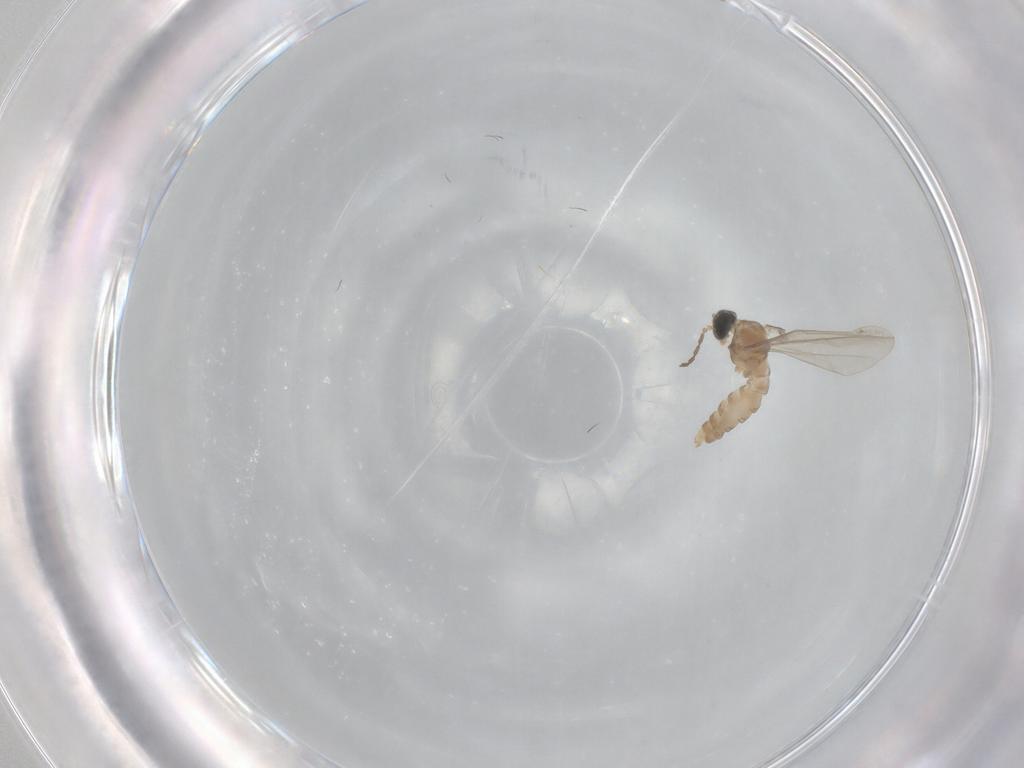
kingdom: Animalia
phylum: Arthropoda
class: Insecta
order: Diptera
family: Cecidomyiidae
